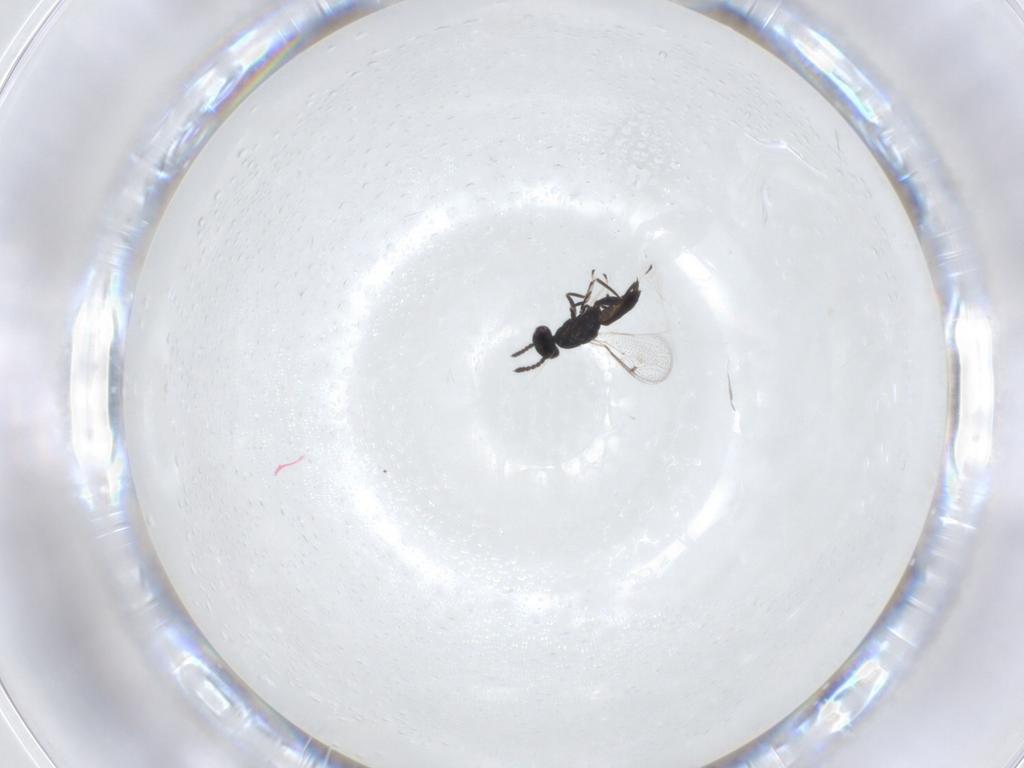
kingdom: Animalia
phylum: Arthropoda
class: Insecta
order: Hymenoptera
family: Eulophidae
